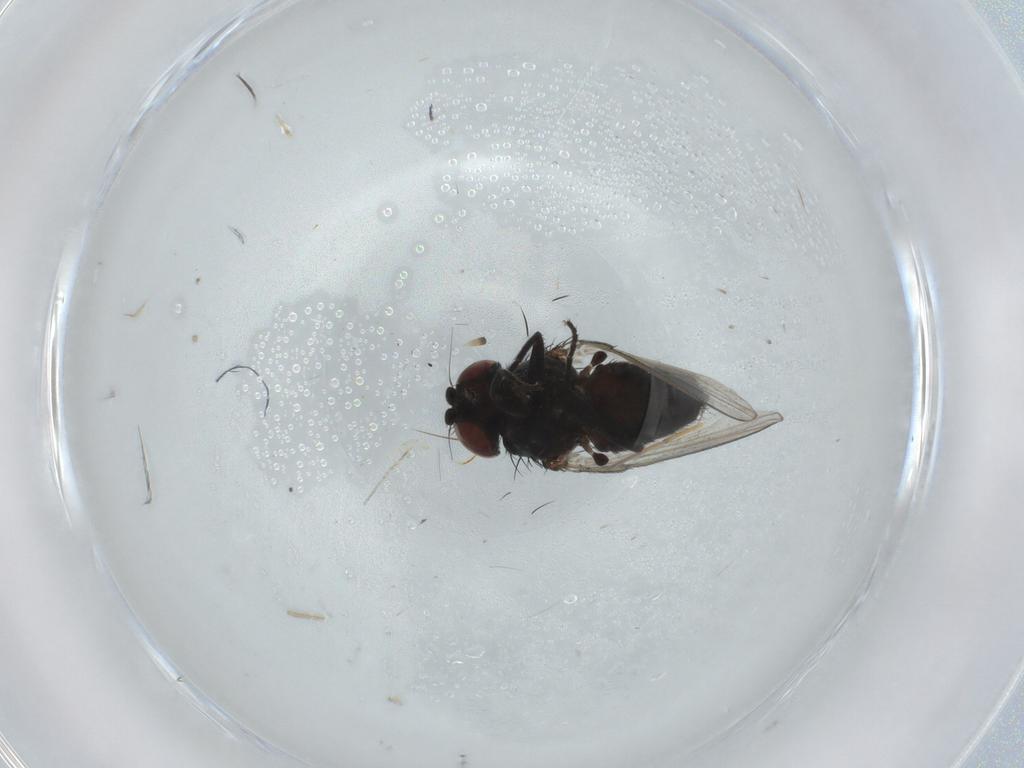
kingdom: Animalia
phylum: Arthropoda
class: Insecta
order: Diptera
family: Milichiidae
